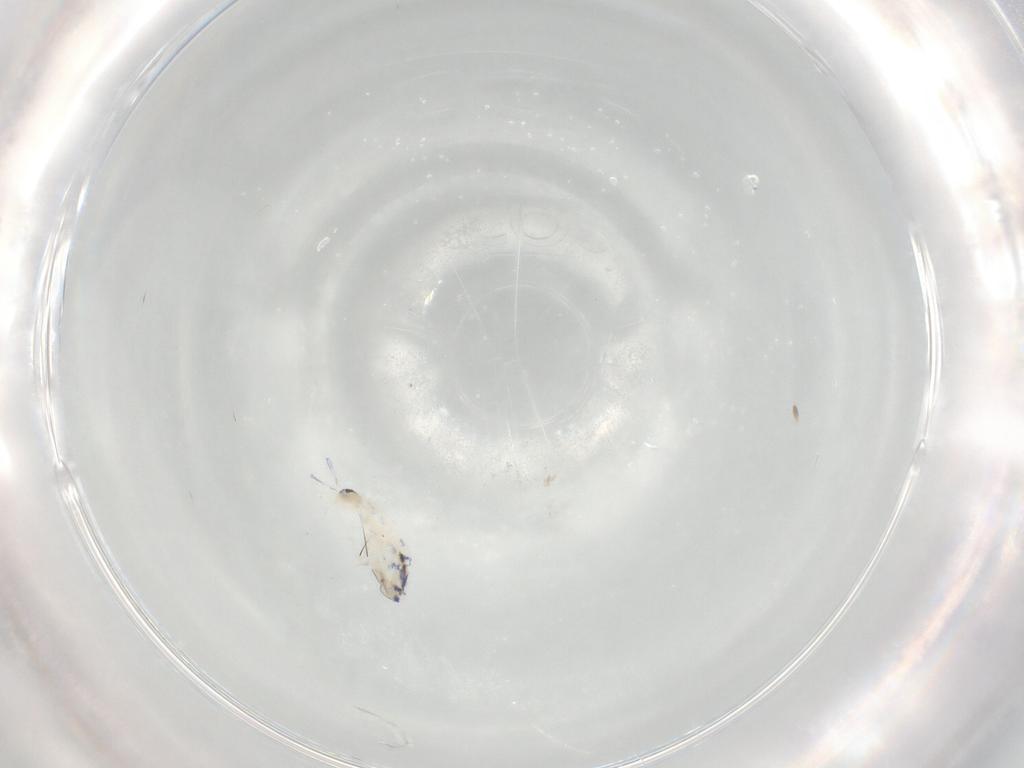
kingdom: Animalia
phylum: Arthropoda
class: Collembola
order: Entomobryomorpha
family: Entomobryidae
